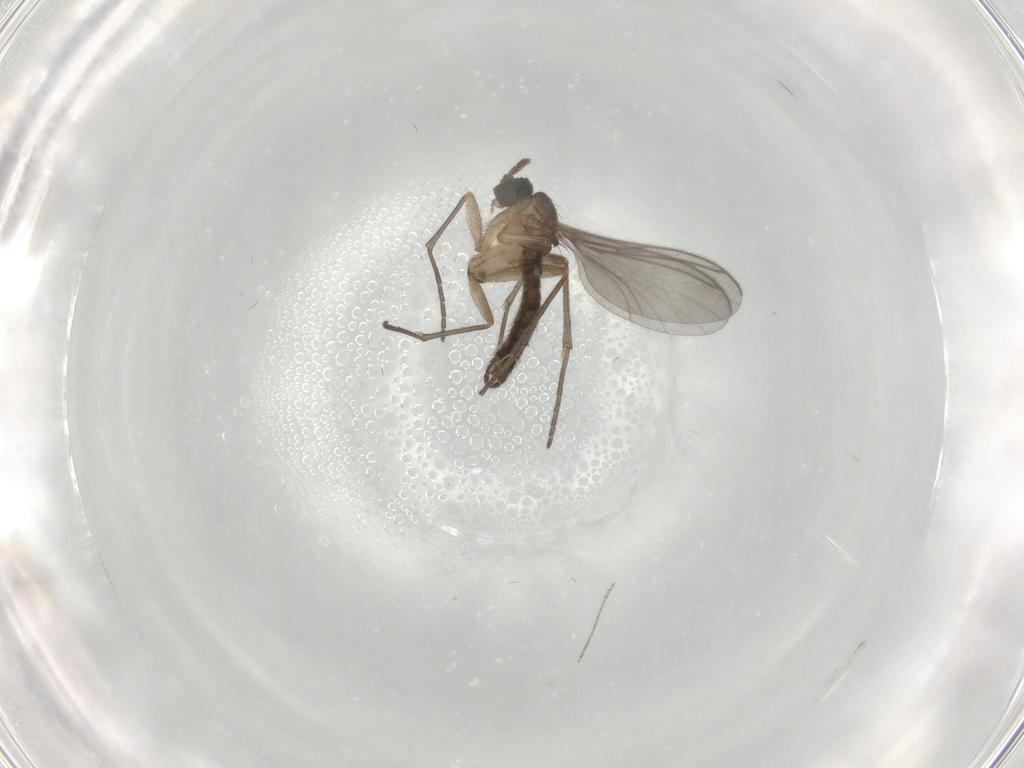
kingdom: Animalia
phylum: Arthropoda
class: Insecta
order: Diptera
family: Sciaridae
